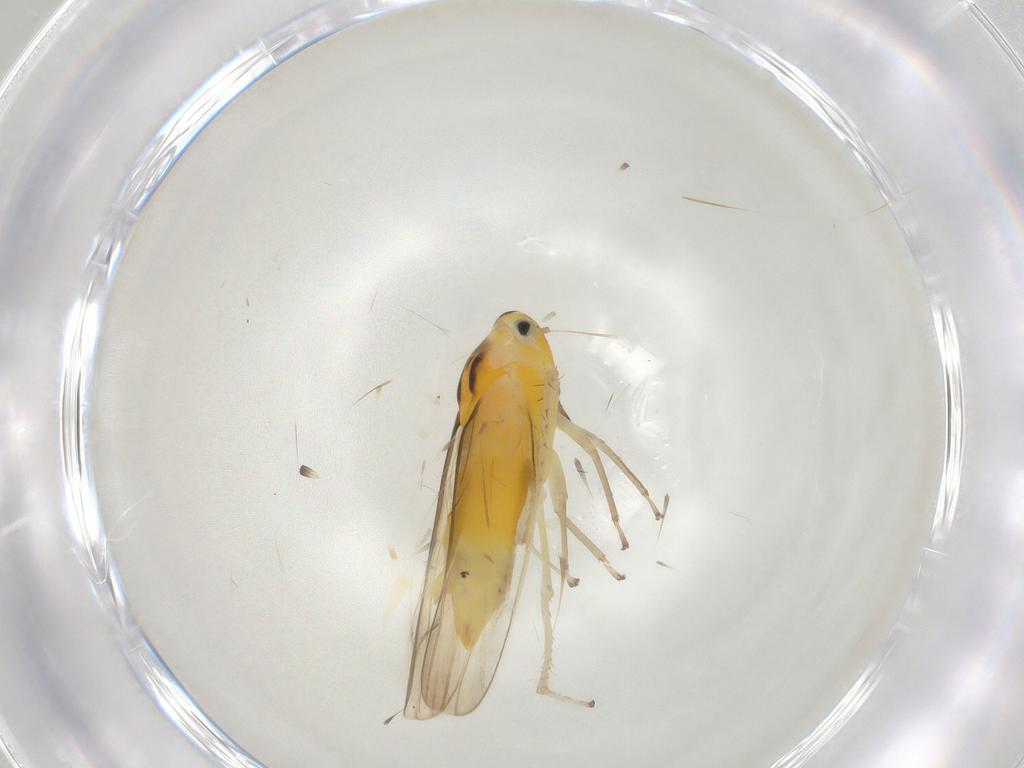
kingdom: Animalia
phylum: Arthropoda
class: Insecta
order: Hemiptera
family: Cicadellidae
